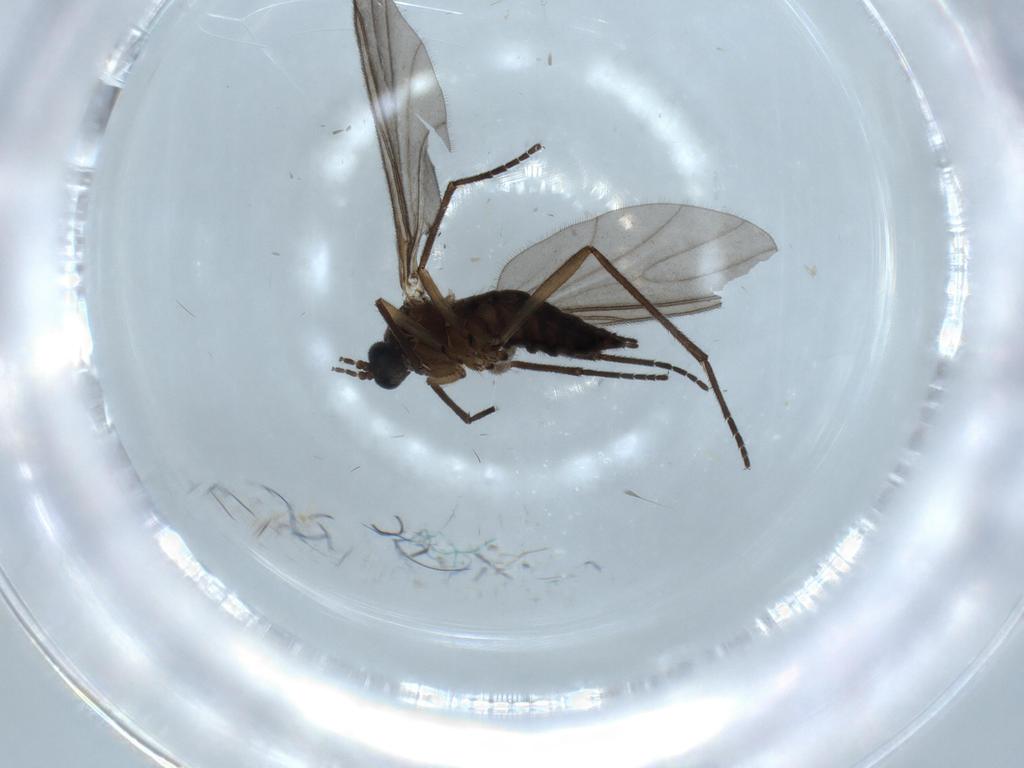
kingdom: Animalia
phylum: Arthropoda
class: Insecta
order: Diptera
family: Sciaridae
